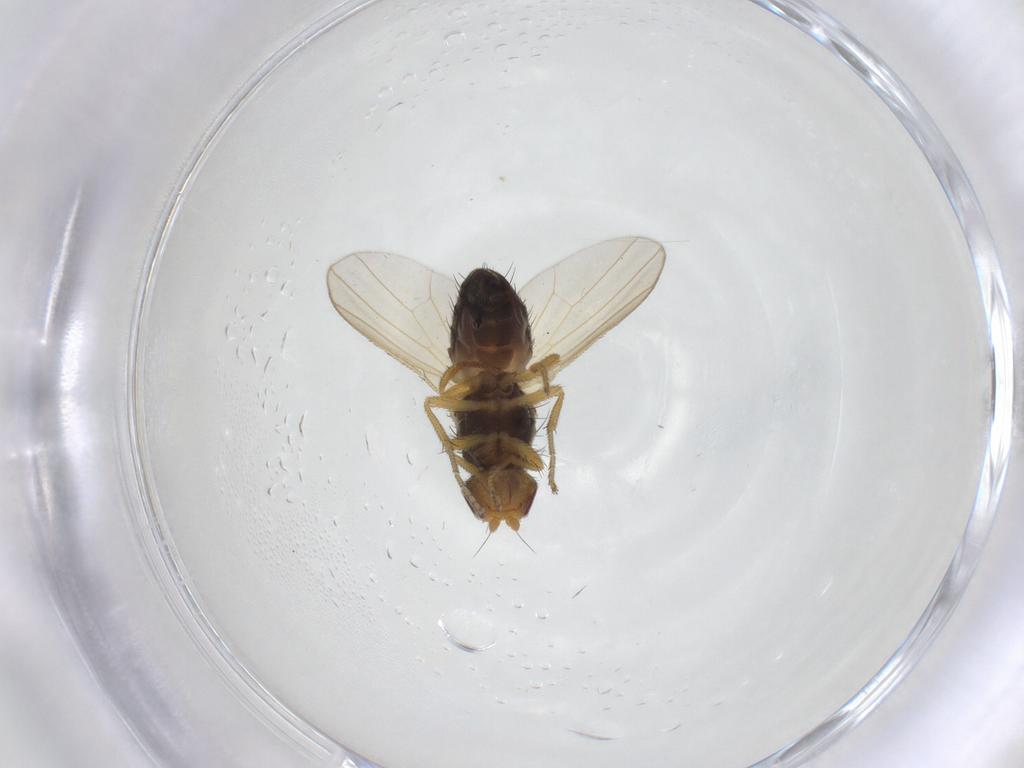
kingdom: Animalia
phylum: Arthropoda
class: Insecta
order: Diptera
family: Heleomyzidae
